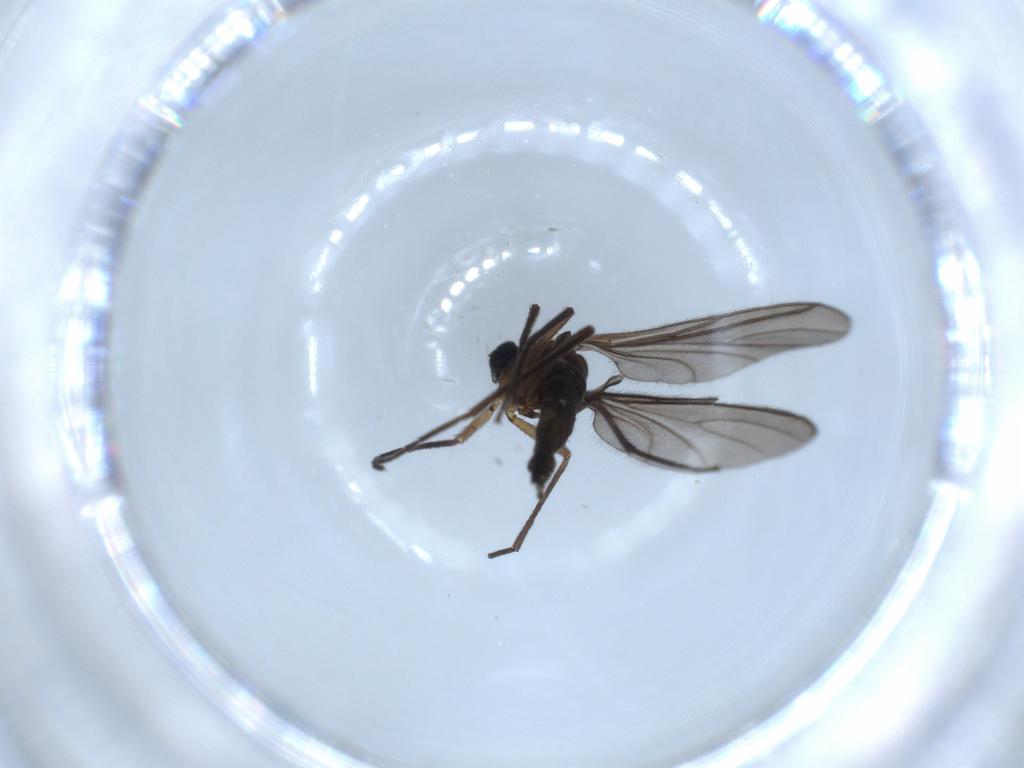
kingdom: Animalia
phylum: Arthropoda
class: Insecta
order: Diptera
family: Sciaridae
